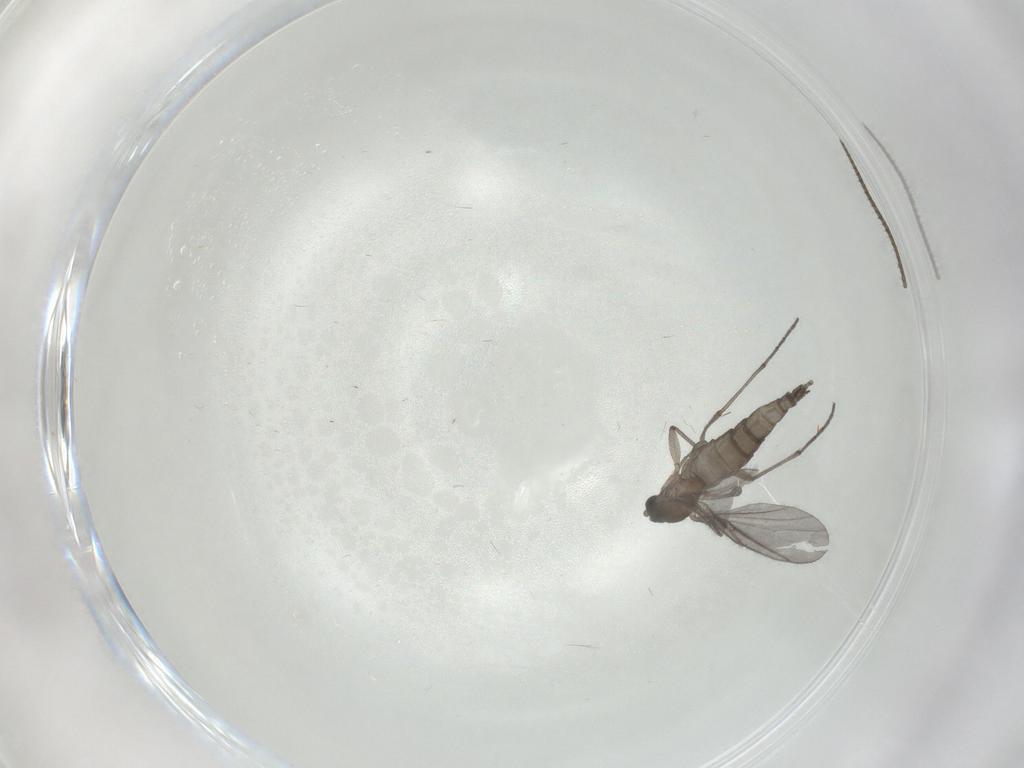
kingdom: Animalia
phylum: Arthropoda
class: Insecta
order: Diptera
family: Sciaridae
